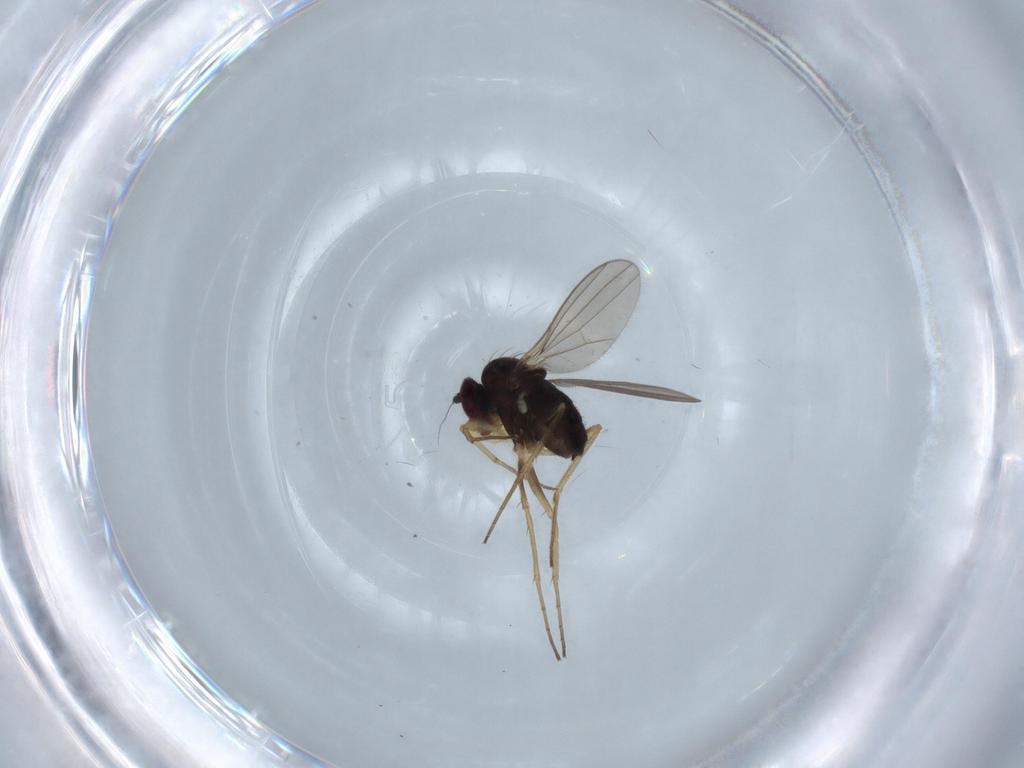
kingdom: Animalia
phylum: Arthropoda
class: Insecta
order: Diptera
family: Dolichopodidae
